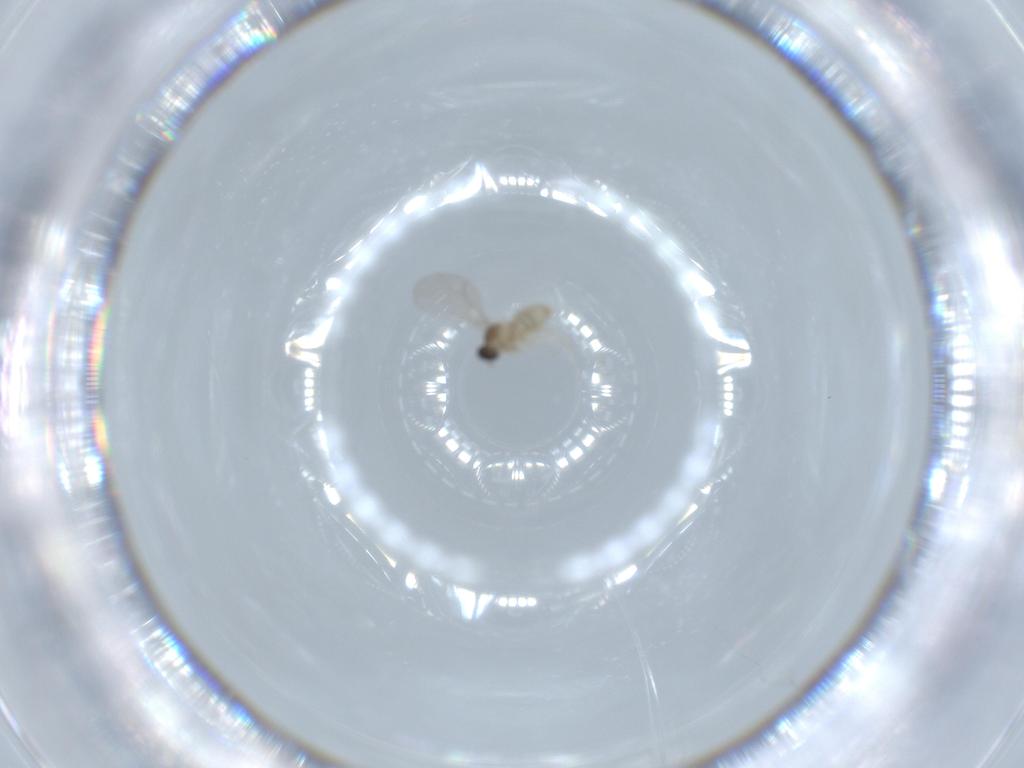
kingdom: Animalia
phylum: Arthropoda
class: Insecta
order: Diptera
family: Cecidomyiidae
